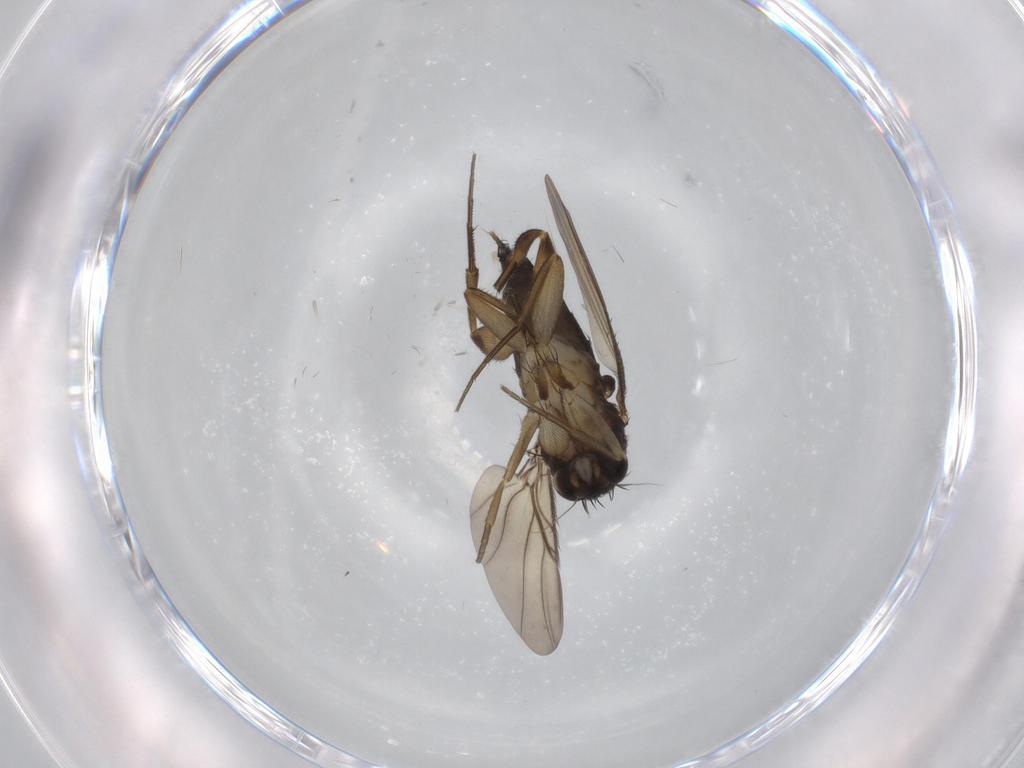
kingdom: Animalia
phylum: Arthropoda
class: Insecta
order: Diptera
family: Phoridae
